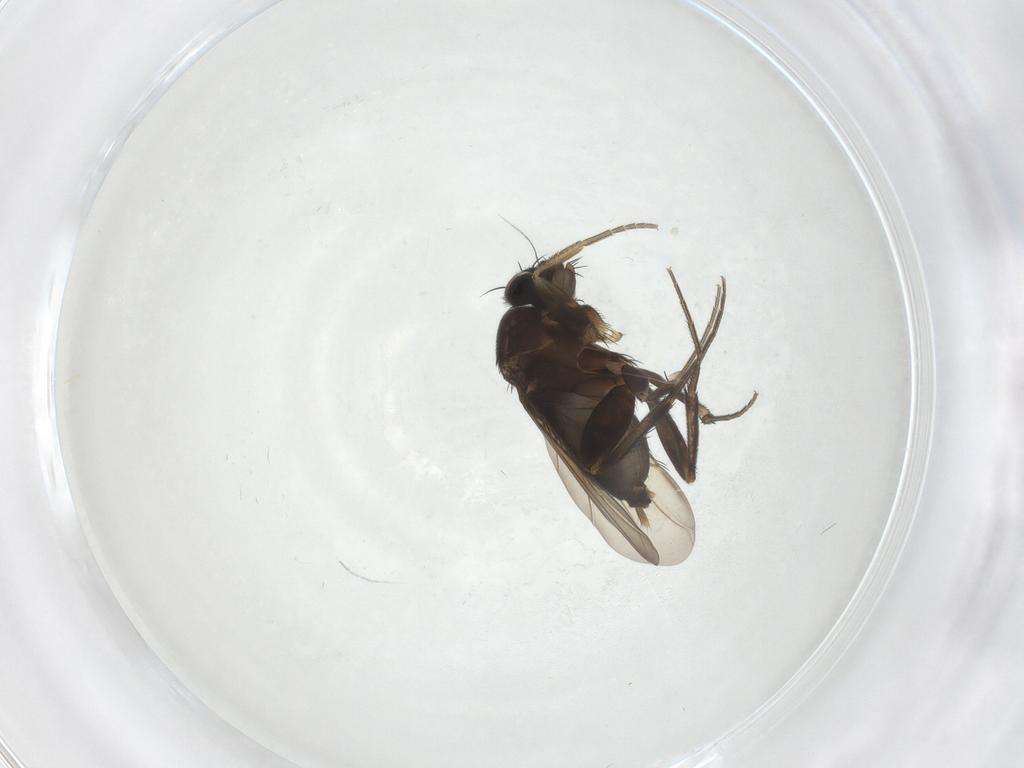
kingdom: Animalia
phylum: Arthropoda
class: Insecta
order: Diptera
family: Phoridae
